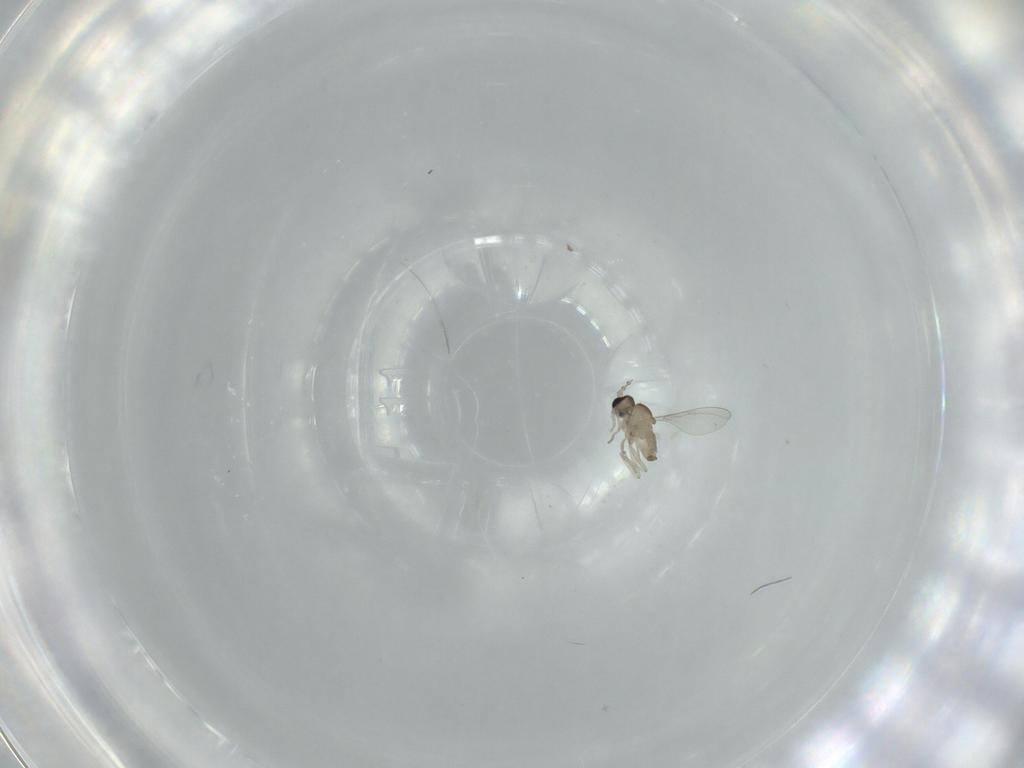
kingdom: Animalia
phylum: Arthropoda
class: Insecta
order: Diptera
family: Cecidomyiidae
